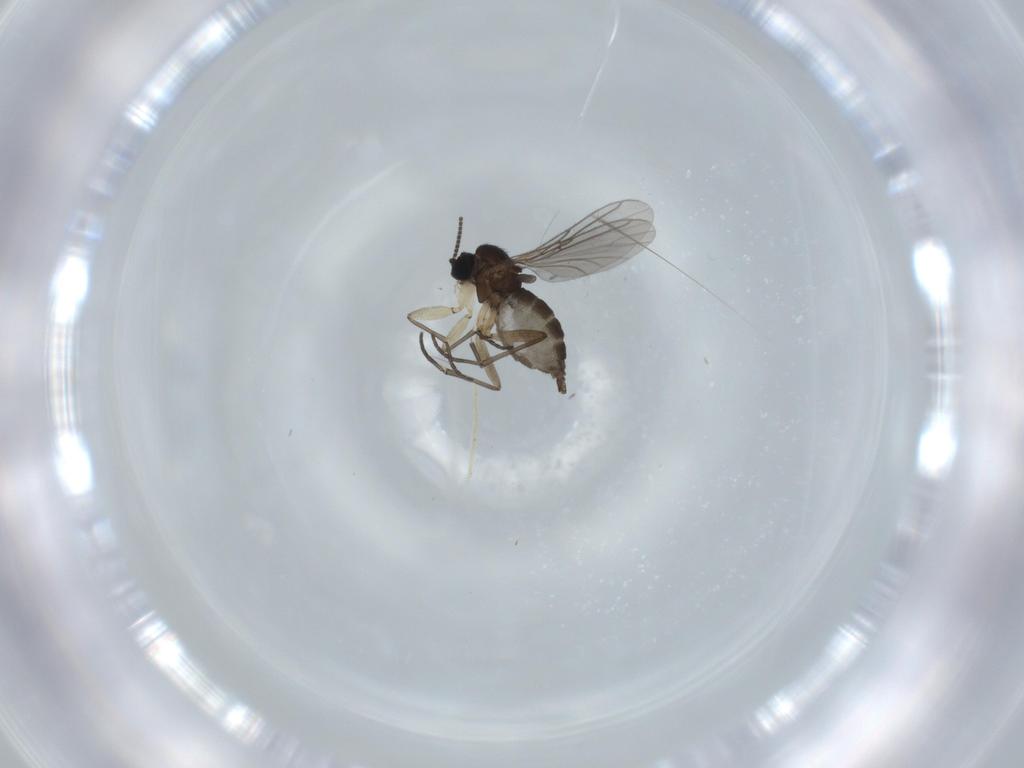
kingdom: Animalia
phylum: Arthropoda
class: Insecta
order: Diptera
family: Sciaridae
